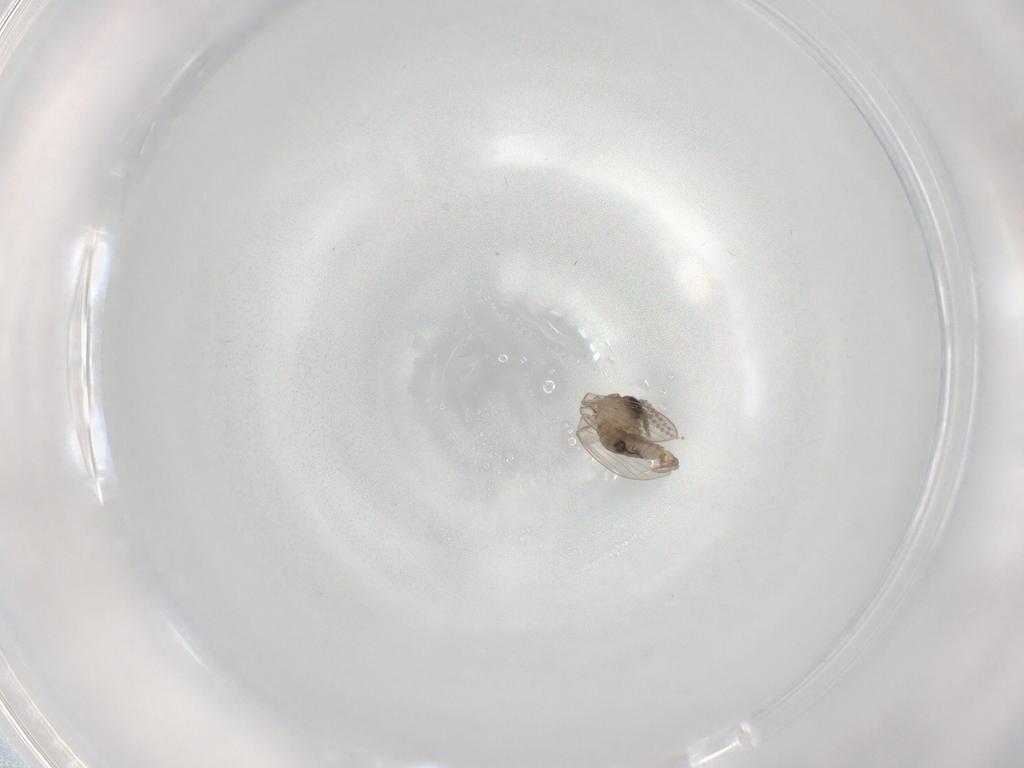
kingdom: Animalia
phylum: Arthropoda
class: Insecta
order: Diptera
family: Psychodidae
